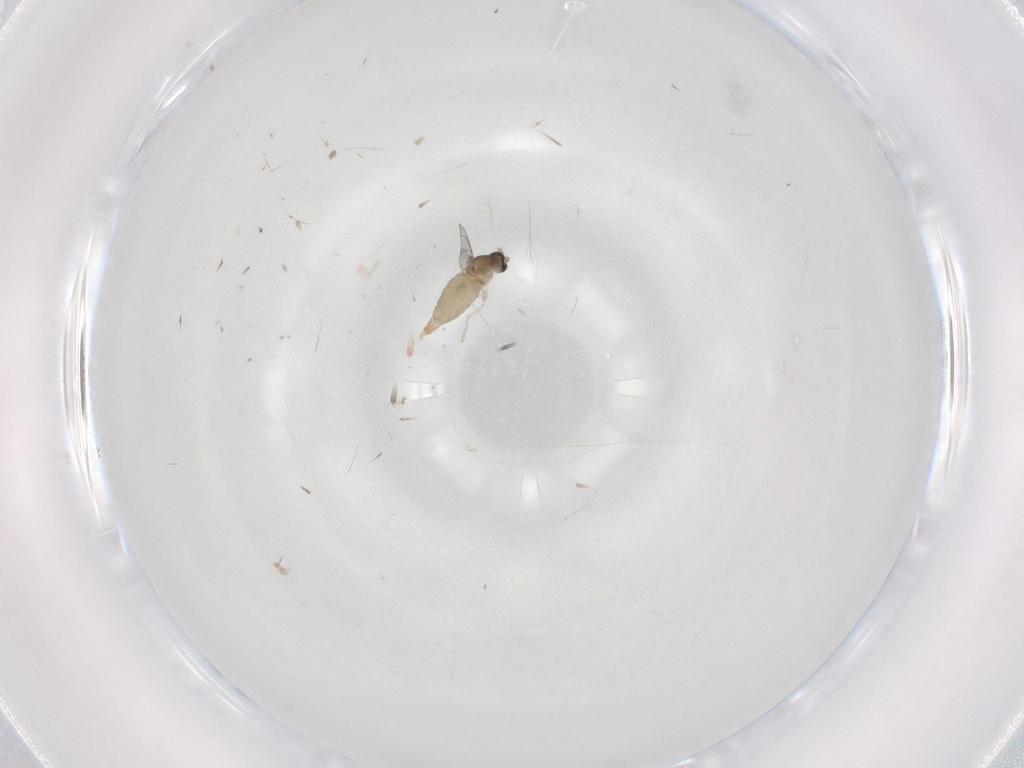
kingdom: Animalia
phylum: Arthropoda
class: Insecta
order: Diptera
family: Cecidomyiidae
